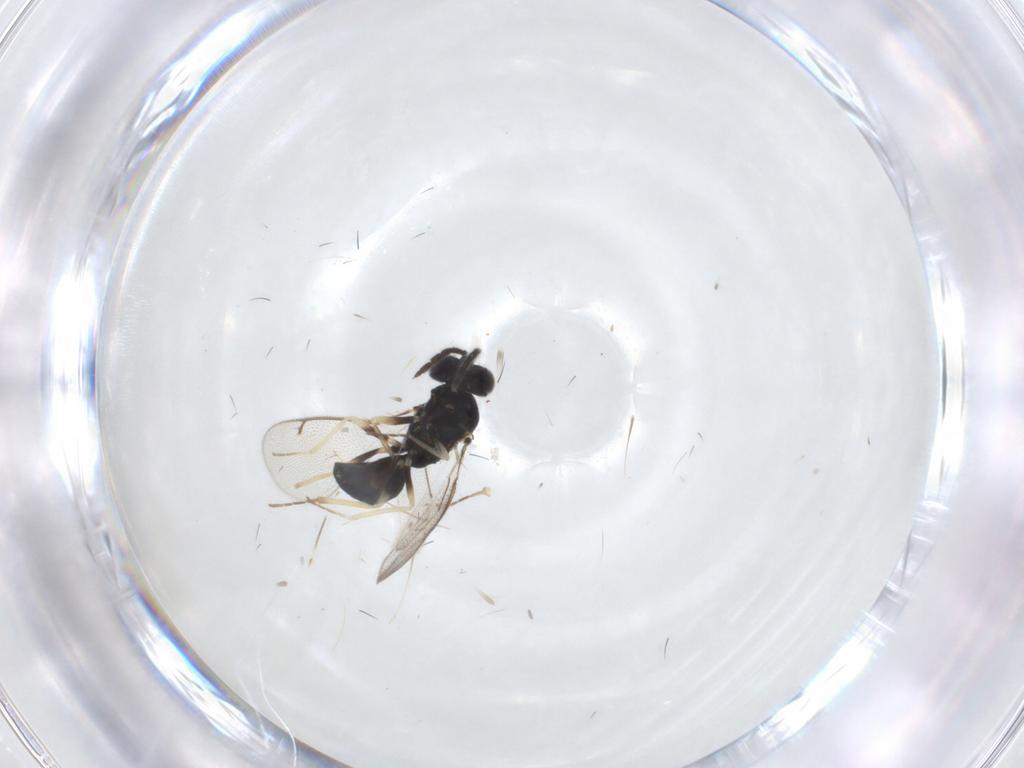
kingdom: Animalia
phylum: Arthropoda
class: Insecta
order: Hymenoptera
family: Eulophidae
